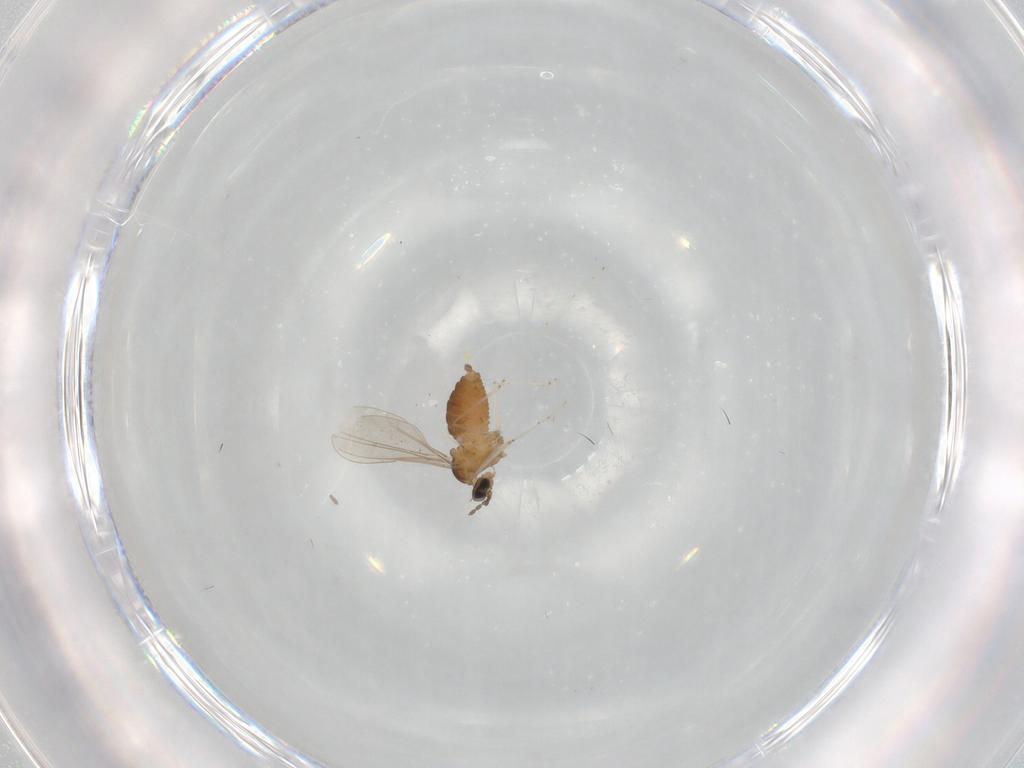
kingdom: Animalia
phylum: Arthropoda
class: Insecta
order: Diptera
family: Cecidomyiidae
